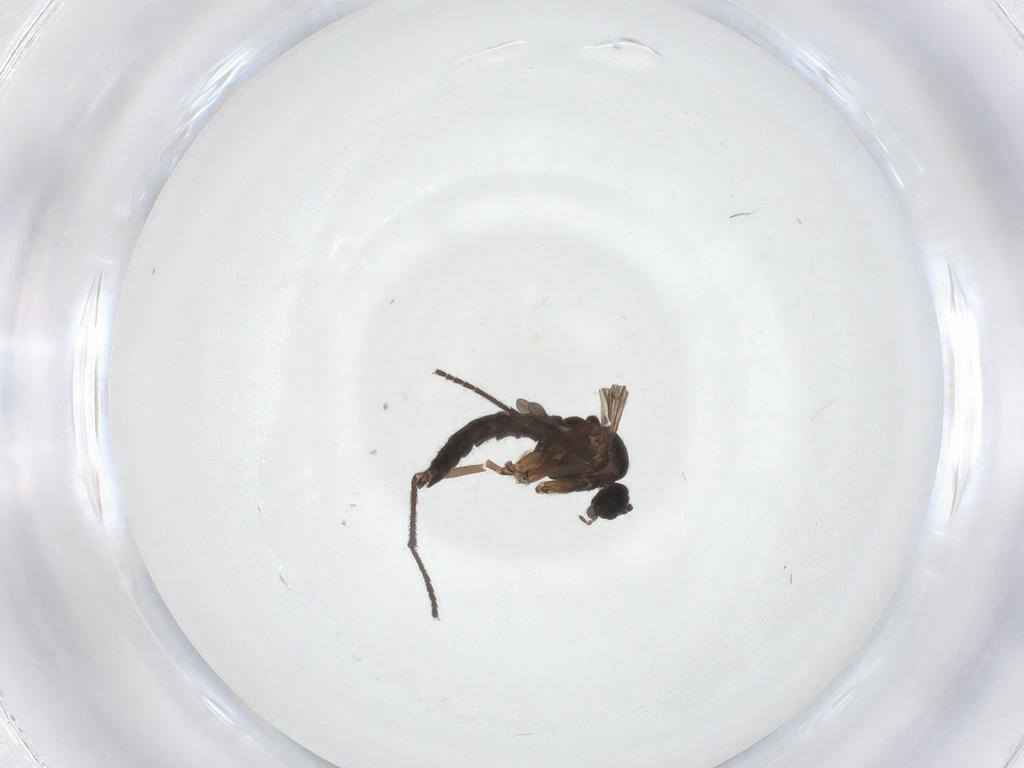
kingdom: Animalia
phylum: Arthropoda
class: Insecta
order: Diptera
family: Sciaridae
